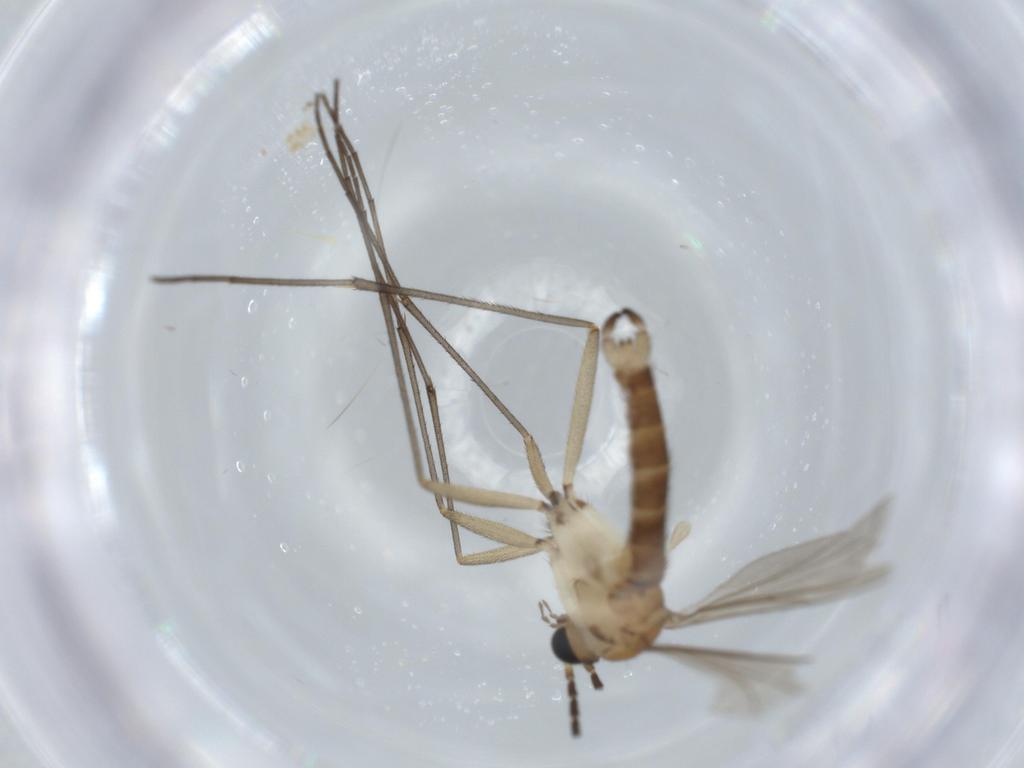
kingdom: Animalia
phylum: Arthropoda
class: Insecta
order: Diptera
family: Sciaridae
